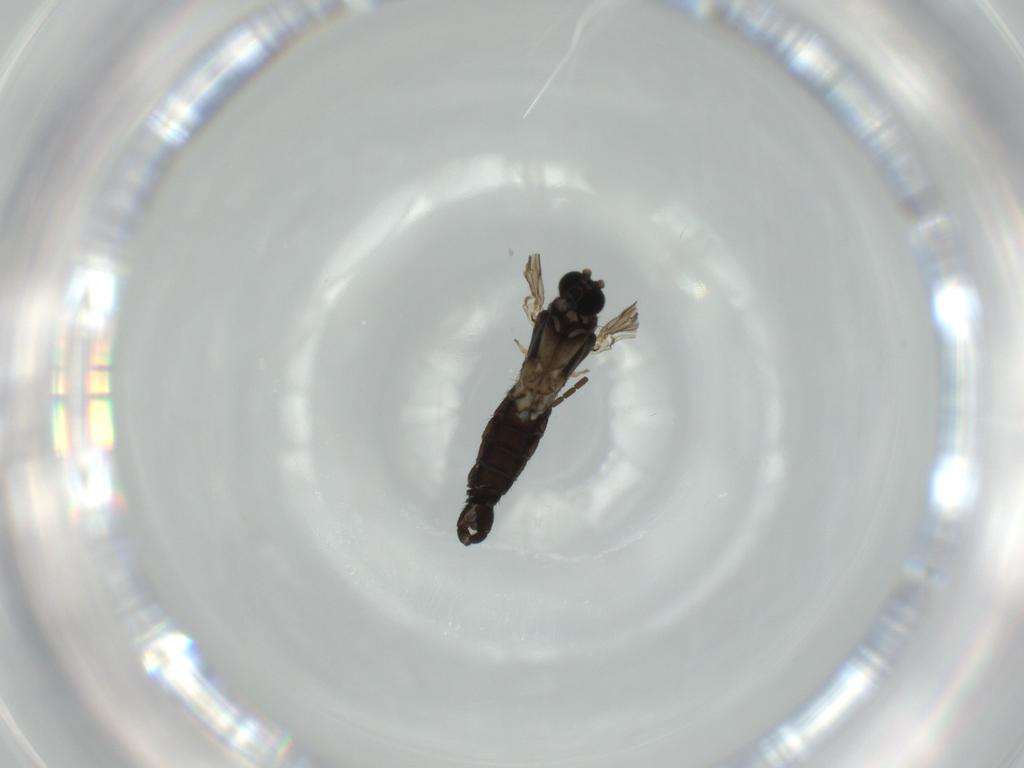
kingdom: Animalia
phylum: Arthropoda
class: Insecta
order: Diptera
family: Sciaridae
